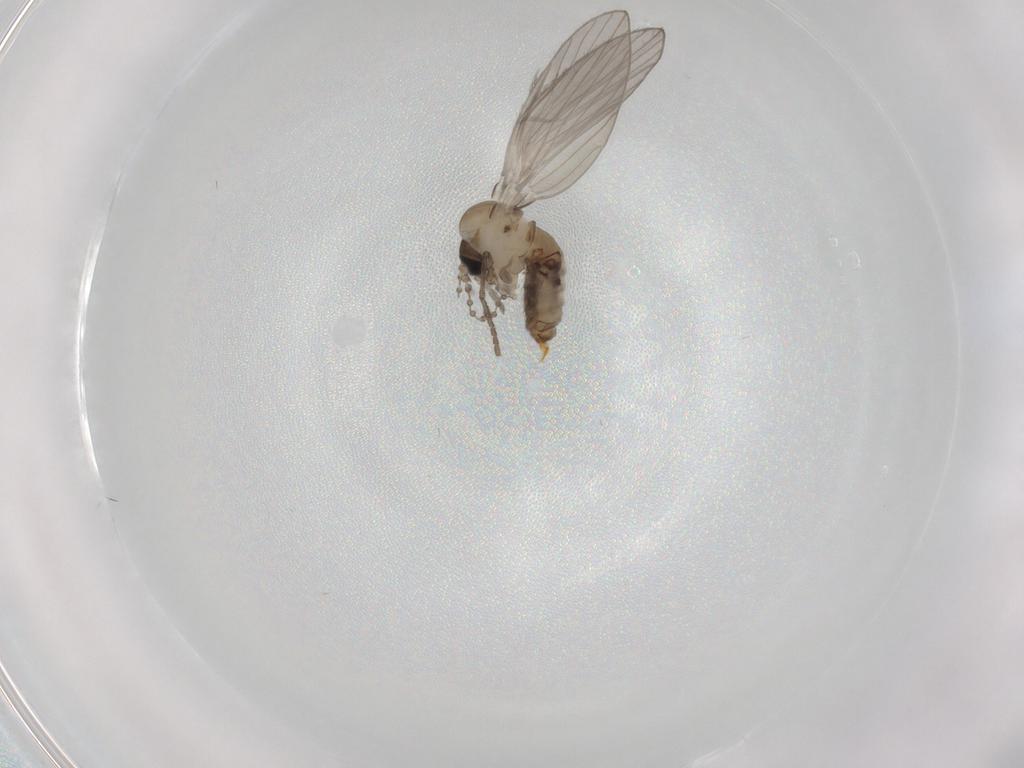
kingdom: Animalia
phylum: Arthropoda
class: Insecta
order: Diptera
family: Psychodidae
